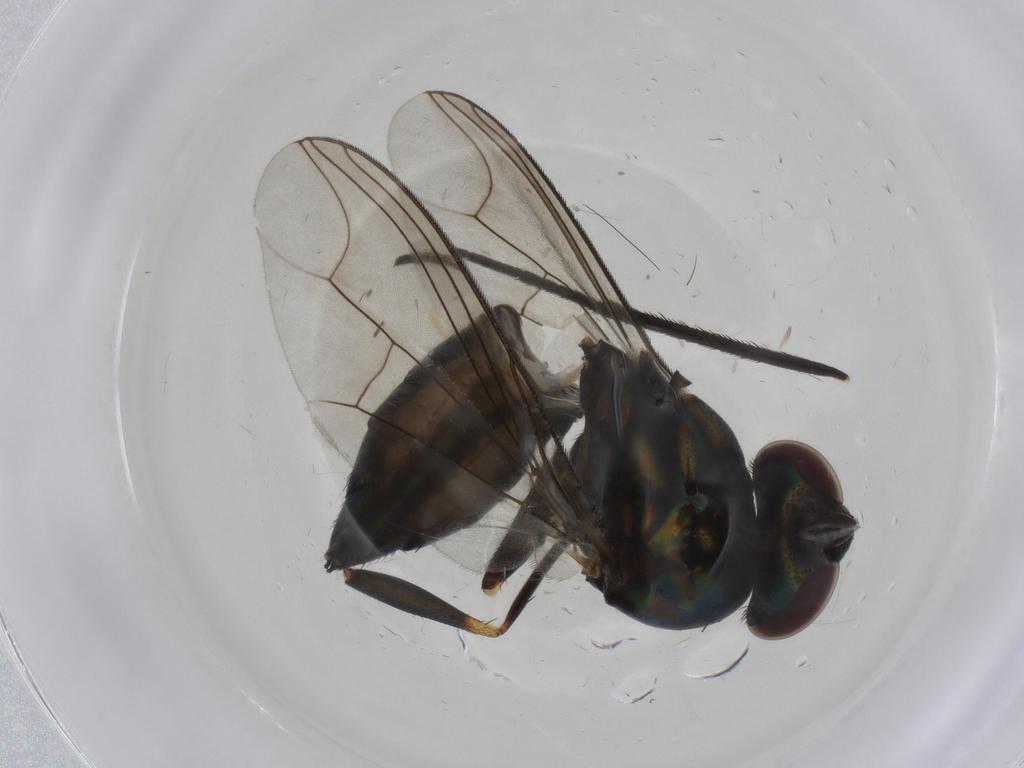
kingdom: Animalia
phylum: Arthropoda
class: Insecta
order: Diptera
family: Dolichopodidae
